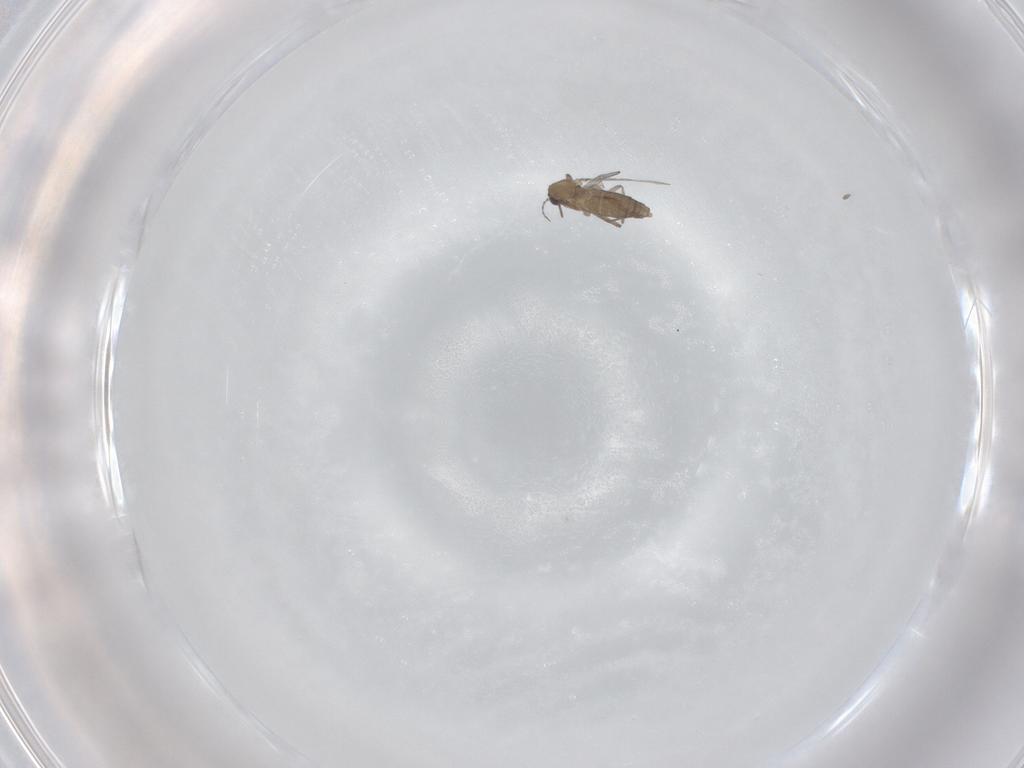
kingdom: Animalia
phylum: Arthropoda
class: Insecta
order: Diptera
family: Chironomidae
